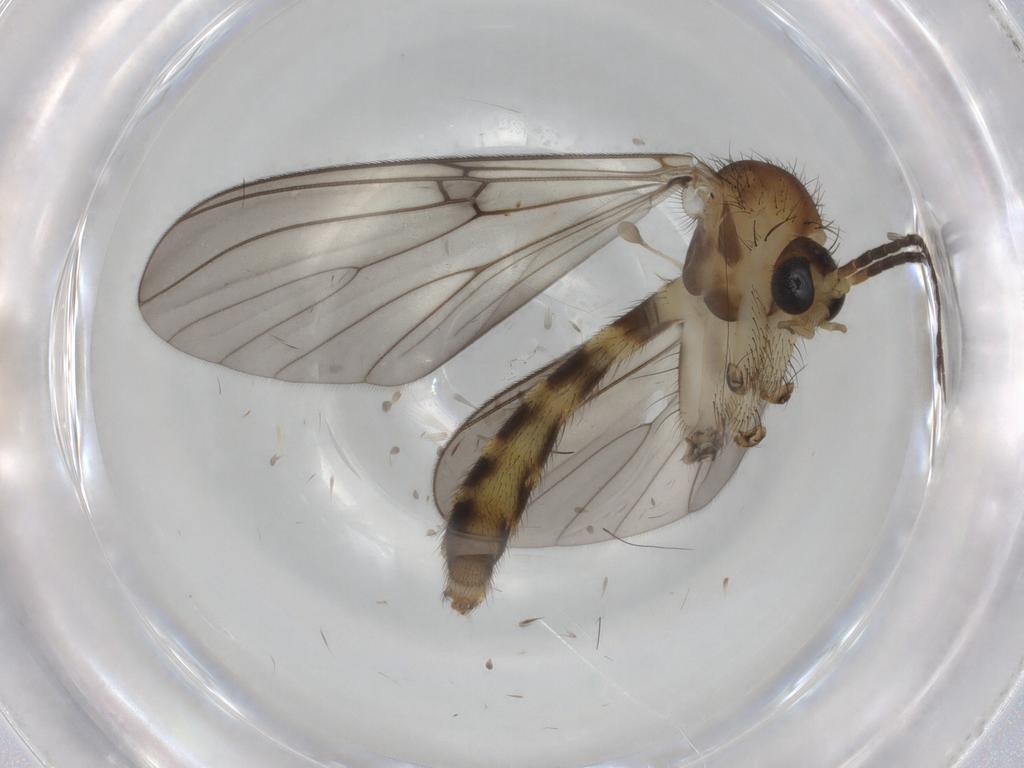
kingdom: Animalia
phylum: Arthropoda
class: Insecta
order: Diptera
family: Mycetophilidae
